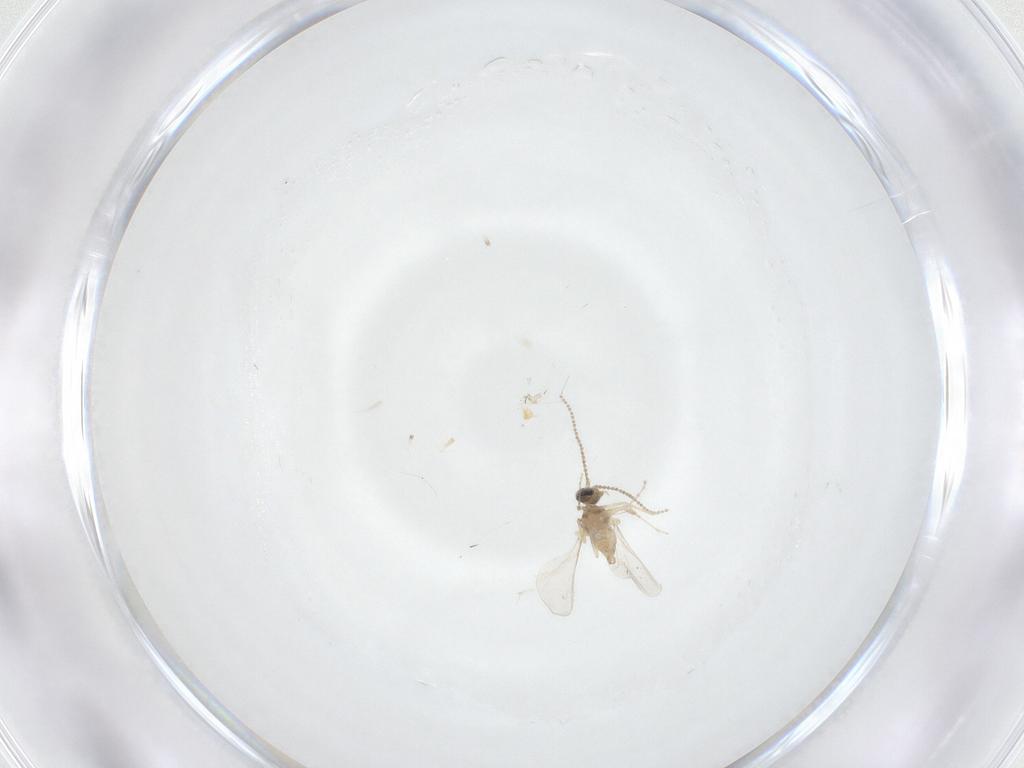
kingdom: Animalia
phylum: Arthropoda
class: Insecta
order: Diptera
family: Cecidomyiidae
